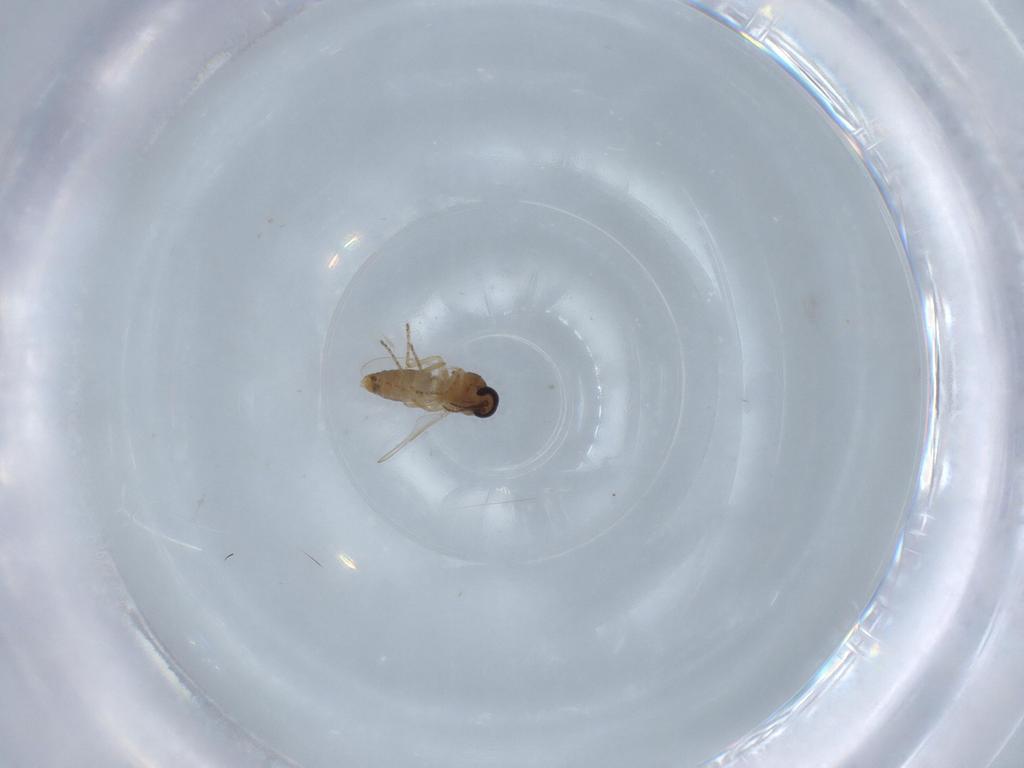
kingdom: Animalia
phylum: Arthropoda
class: Insecta
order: Diptera
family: Ceratopogonidae
